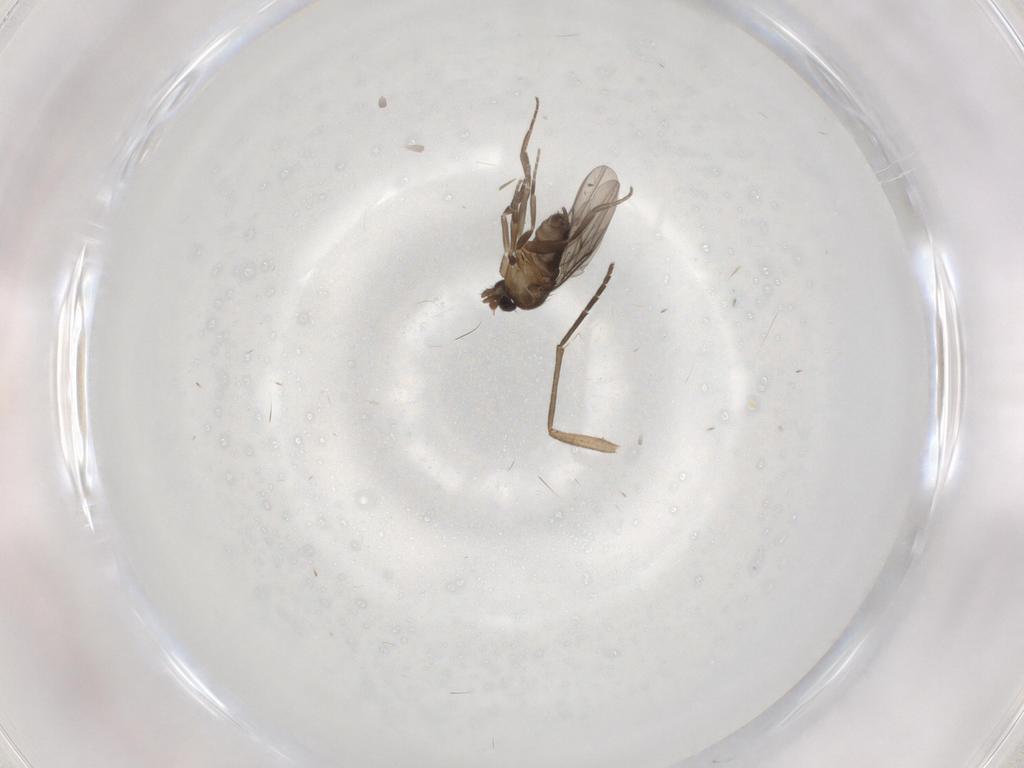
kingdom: Animalia
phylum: Arthropoda
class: Insecta
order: Diptera
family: Phoridae
